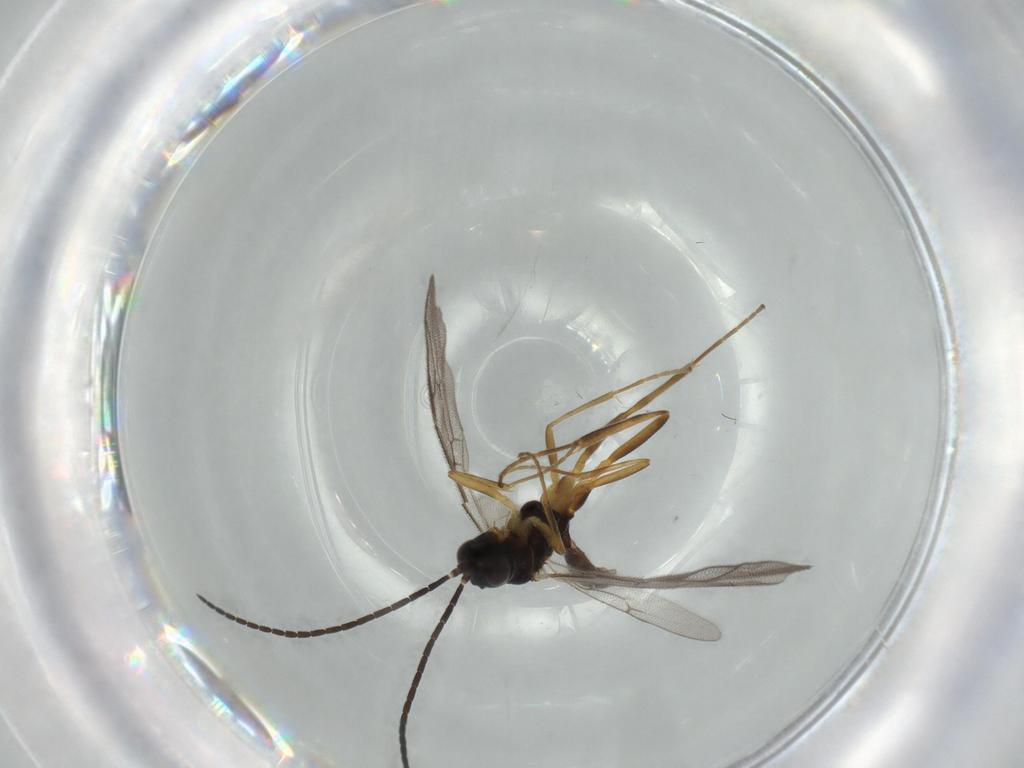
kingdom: Animalia
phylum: Arthropoda
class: Insecta
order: Hymenoptera
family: Ichneumonidae
